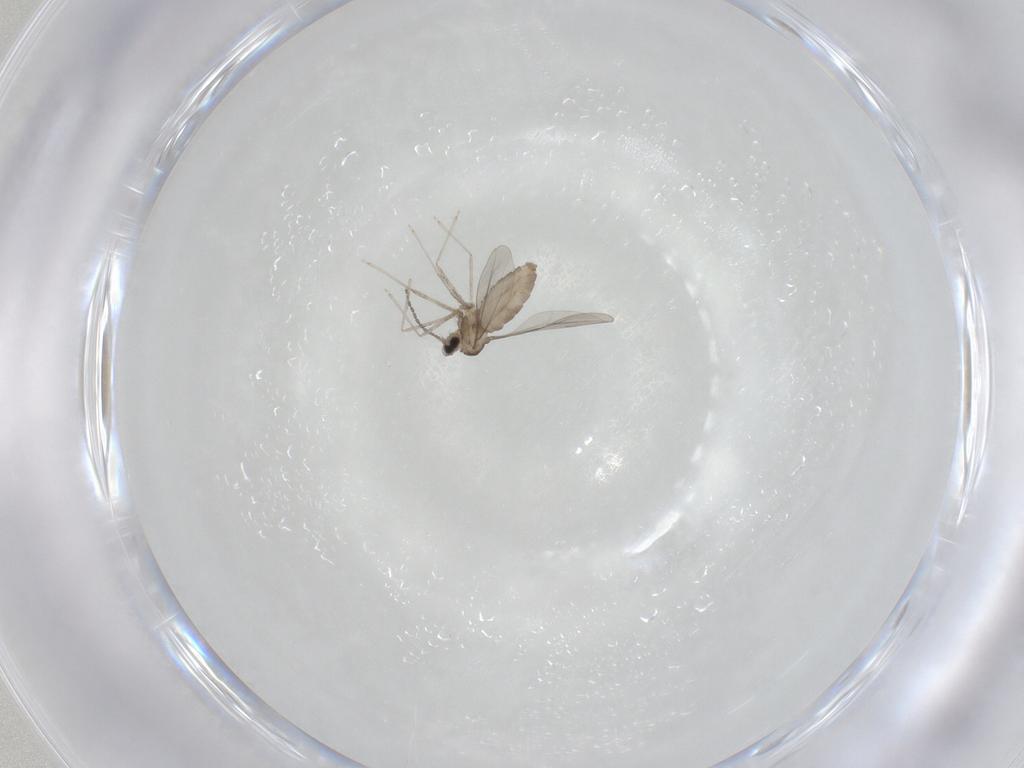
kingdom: Animalia
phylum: Arthropoda
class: Insecta
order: Diptera
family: Cecidomyiidae
